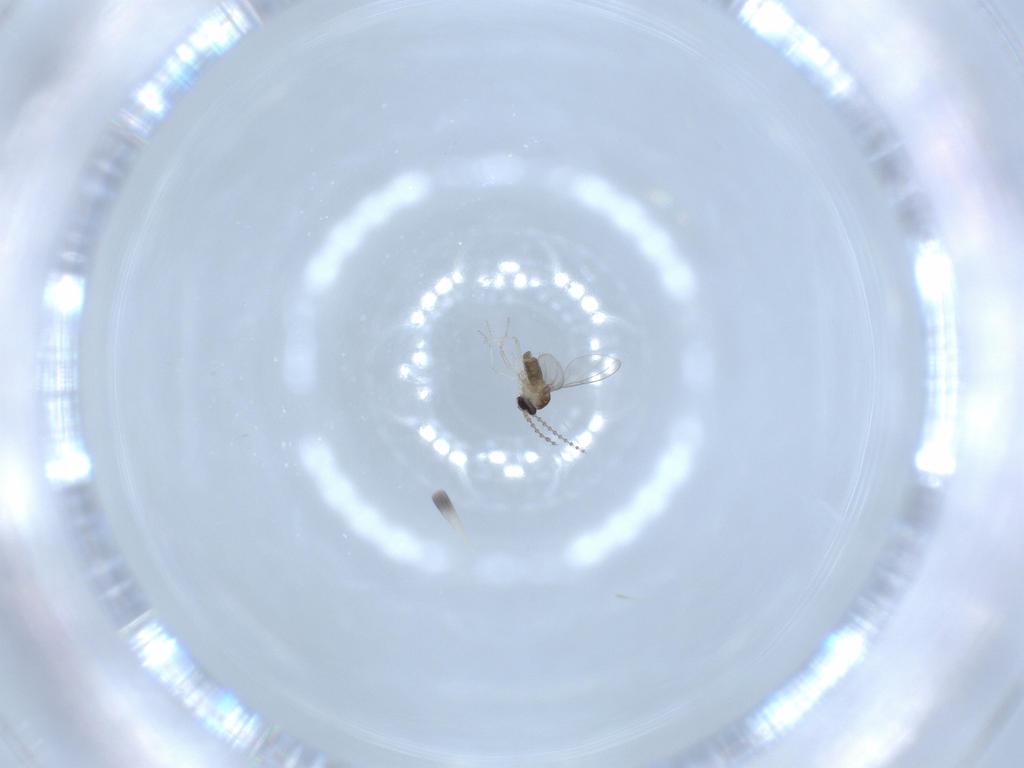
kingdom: Animalia
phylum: Arthropoda
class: Insecta
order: Diptera
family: Cecidomyiidae
